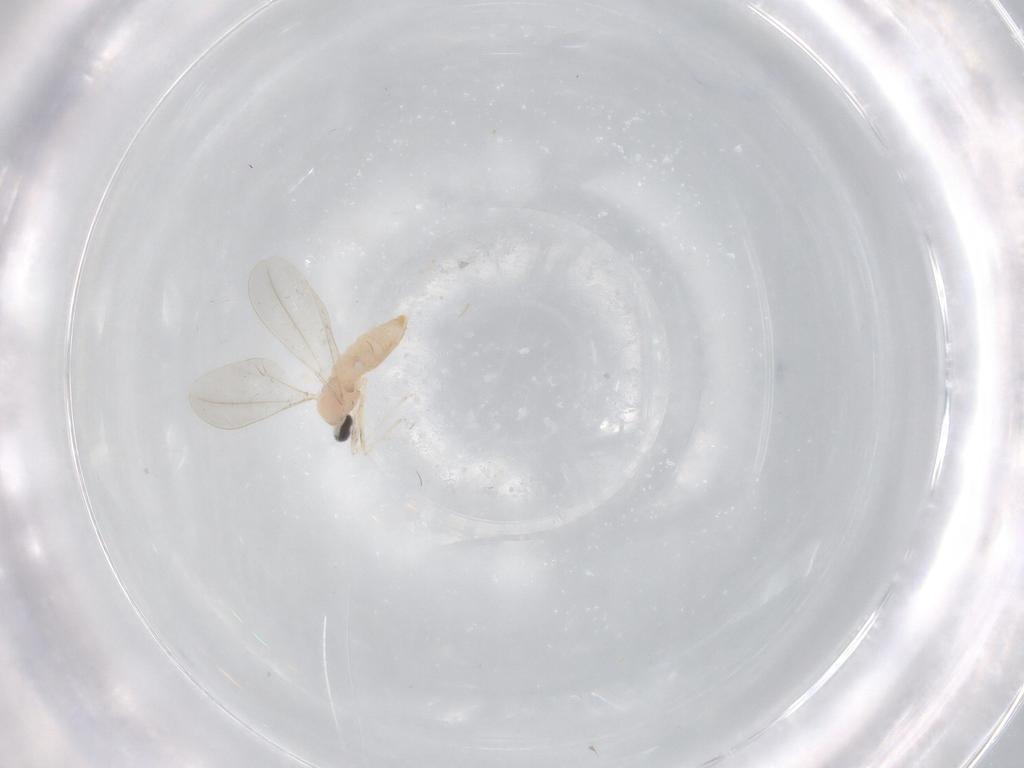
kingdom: Animalia
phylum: Arthropoda
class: Insecta
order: Diptera
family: Cecidomyiidae
